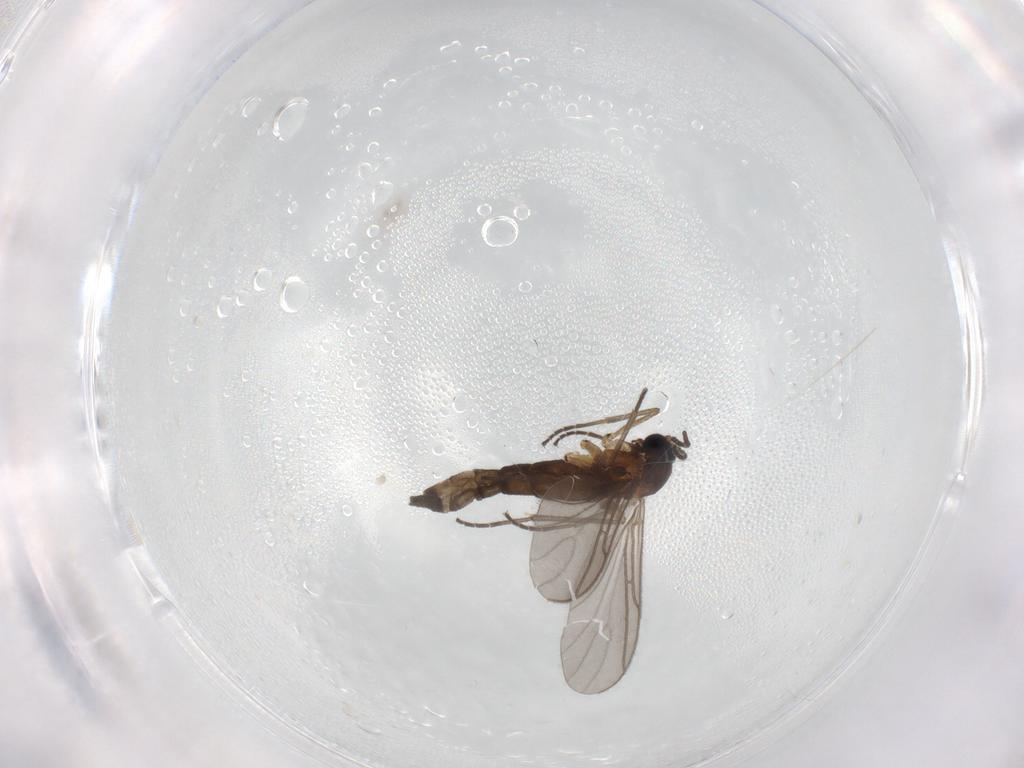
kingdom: Animalia
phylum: Arthropoda
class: Insecta
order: Diptera
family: Sciaridae
